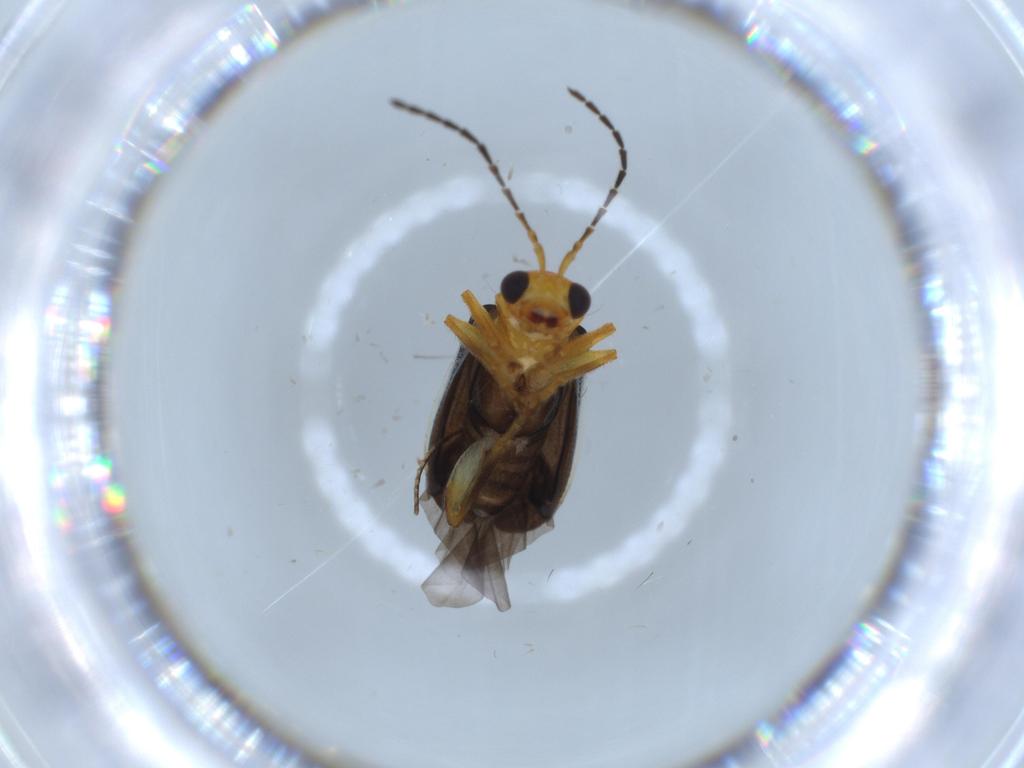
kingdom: Animalia
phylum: Arthropoda
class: Insecta
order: Coleoptera
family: Chrysomelidae
